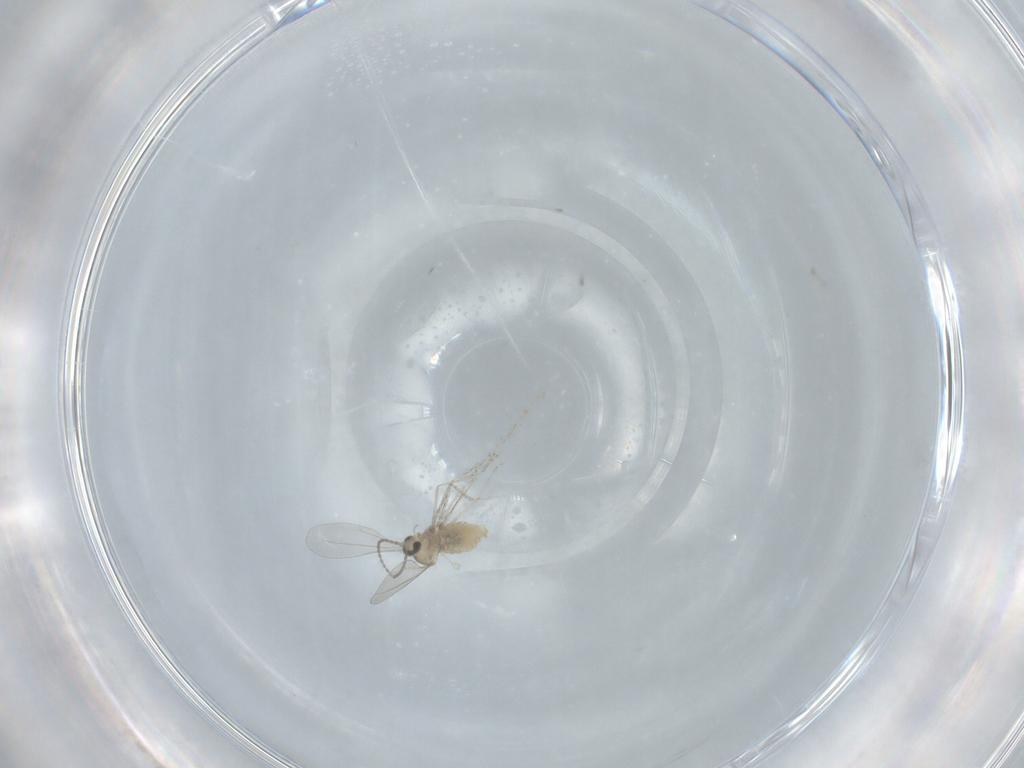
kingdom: Animalia
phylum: Arthropoda
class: Insecta
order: Diptera
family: Cecidomyiidae
